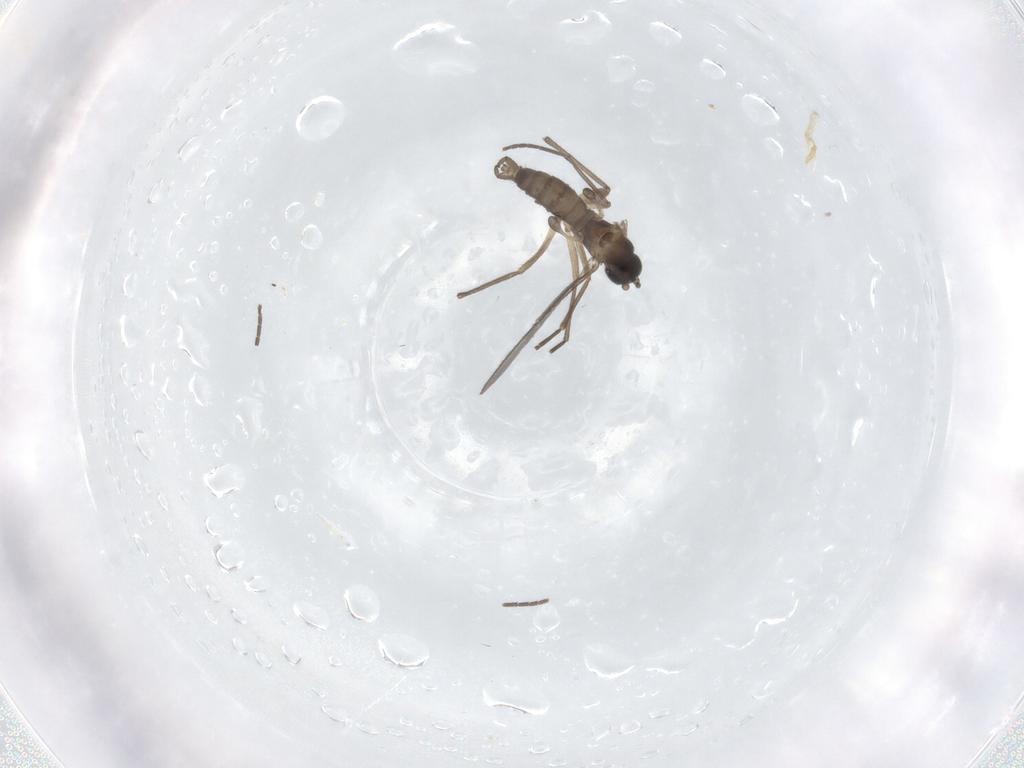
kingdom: Animalia
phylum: Arthropoda
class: Insecta
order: Diptera
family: Sciaridae
